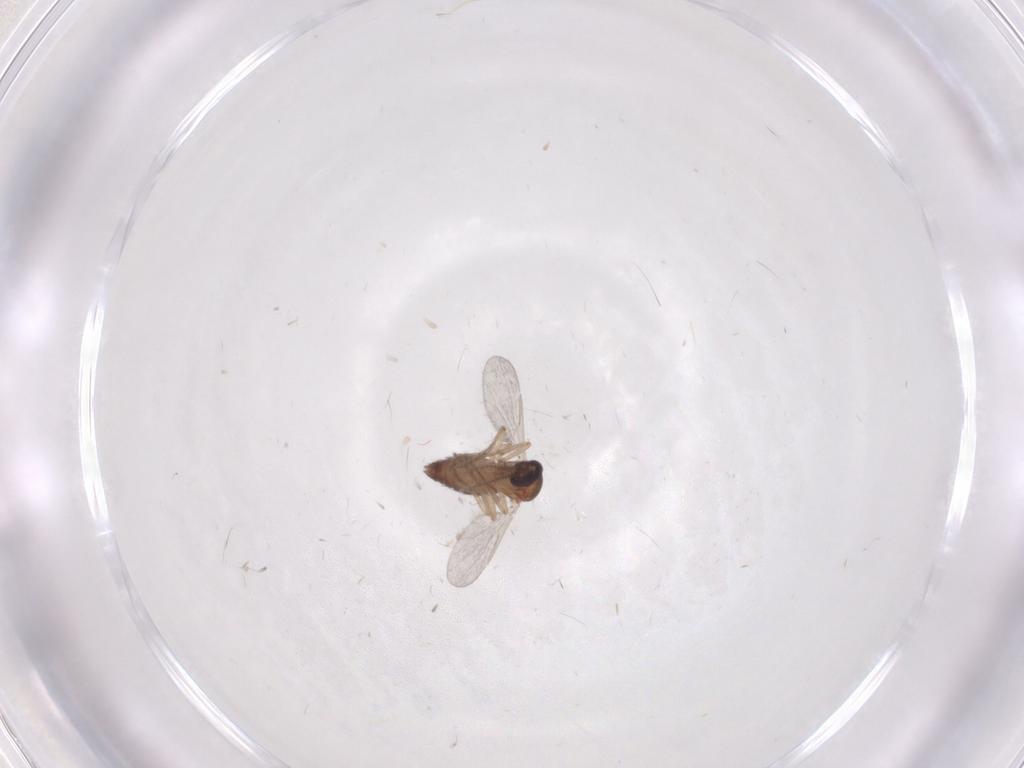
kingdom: Animalia
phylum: Arthropoda
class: Insecta
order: Diptera
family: Ceratopogonidae
